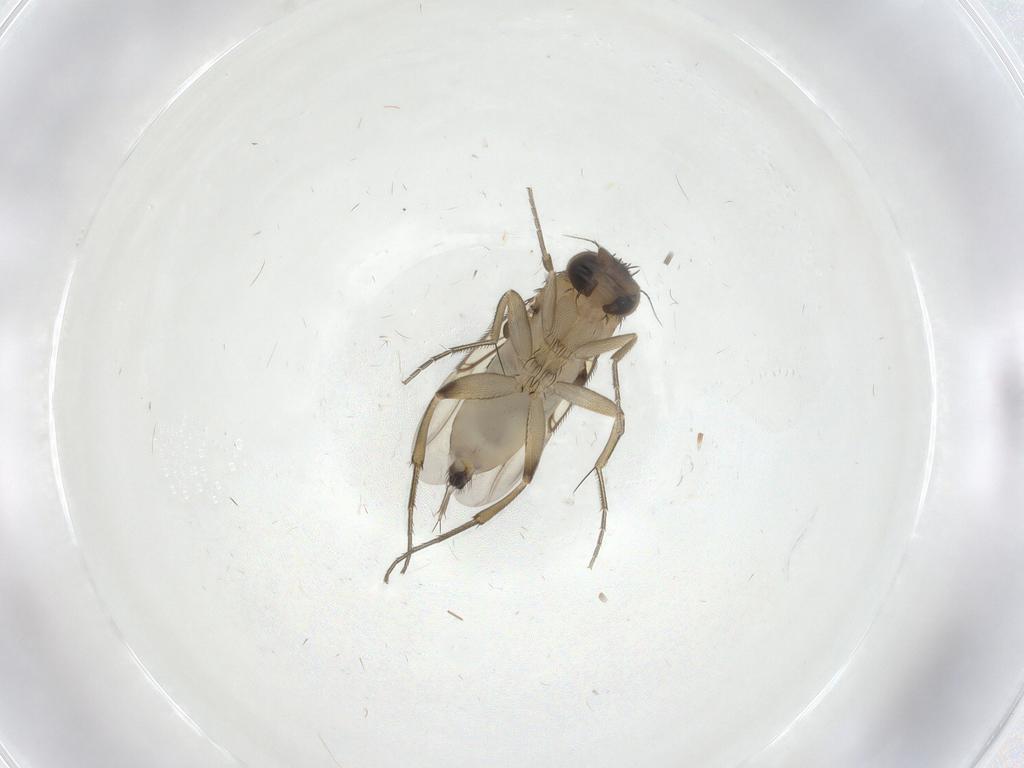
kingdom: Animalia
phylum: Arthropoda
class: Insecta
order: Diptera
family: Phoridae
